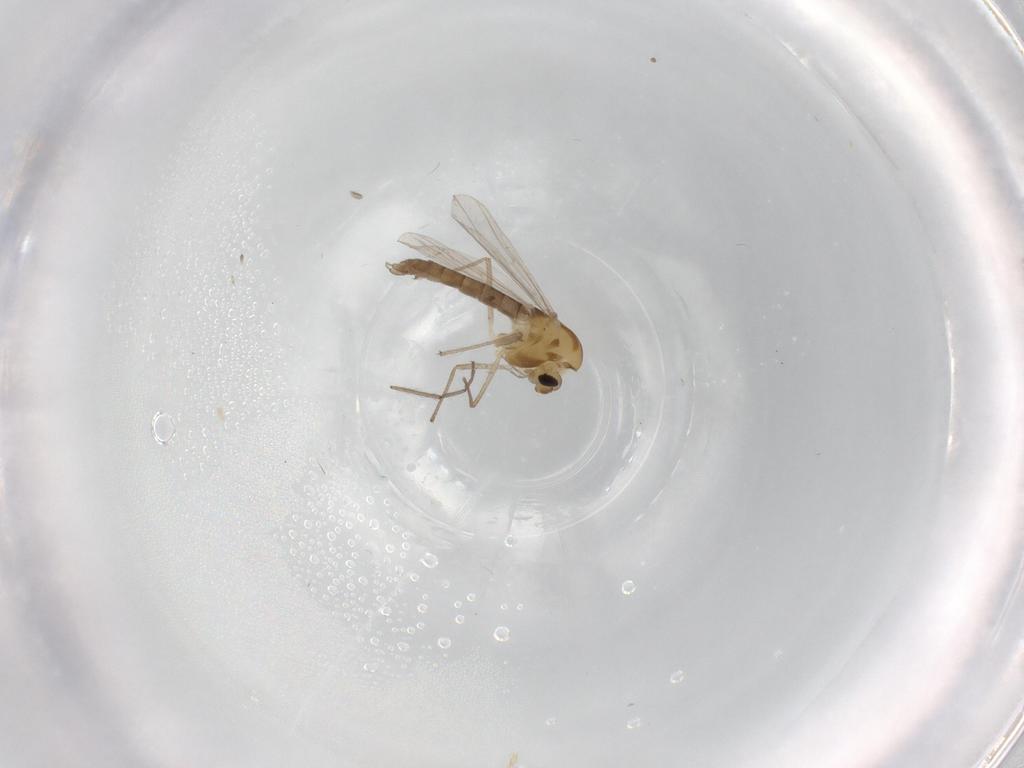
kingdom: Animalia
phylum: Arthropoda
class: Insecta
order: Diptera
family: Chironomidae
